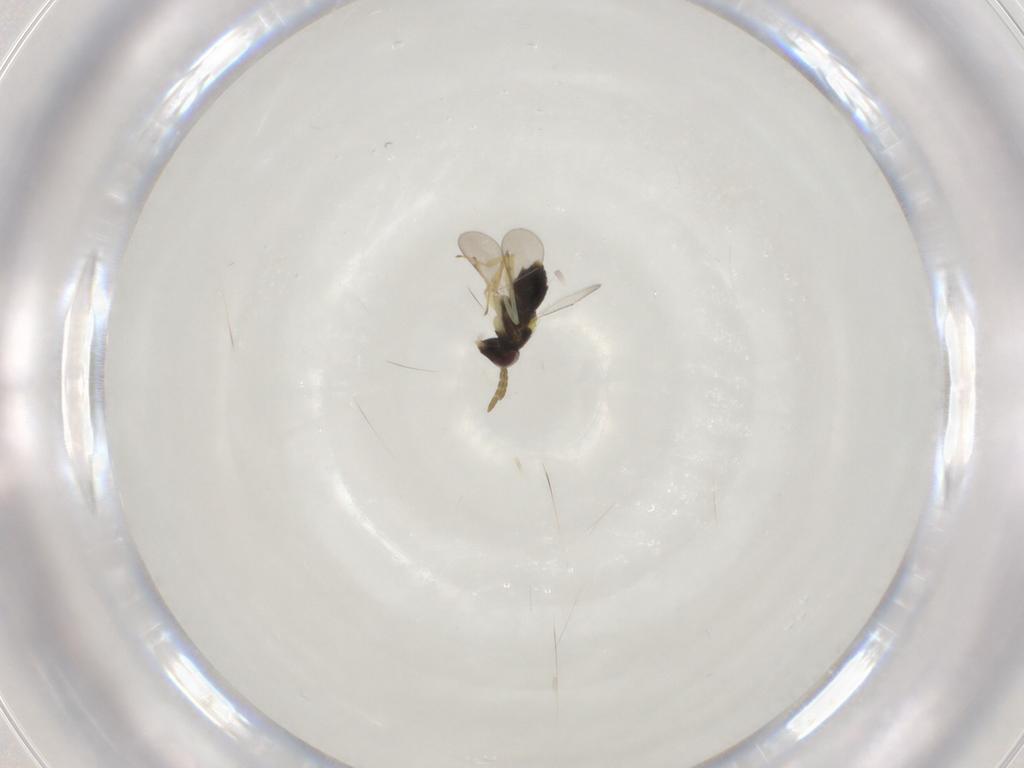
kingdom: Animalia
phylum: Arthropoda
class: Insecta
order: Hymenoptera
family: Aphelinidae
